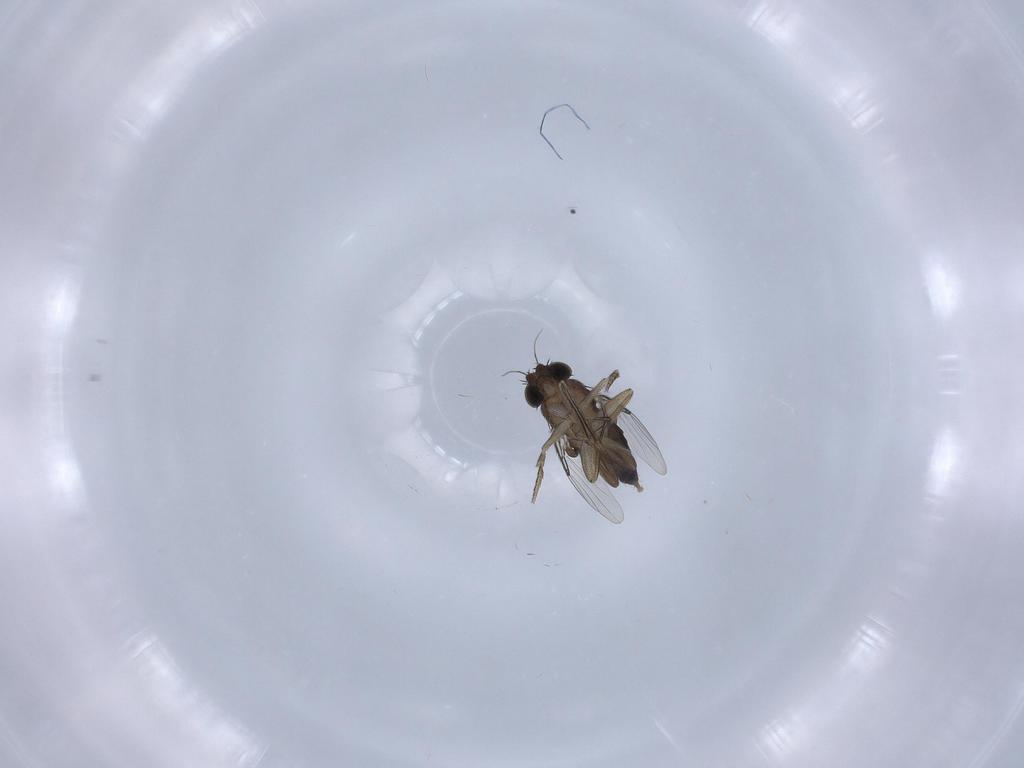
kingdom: Animalia
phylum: Arthropoda
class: Insecta
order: Diptera
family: Phoridae
